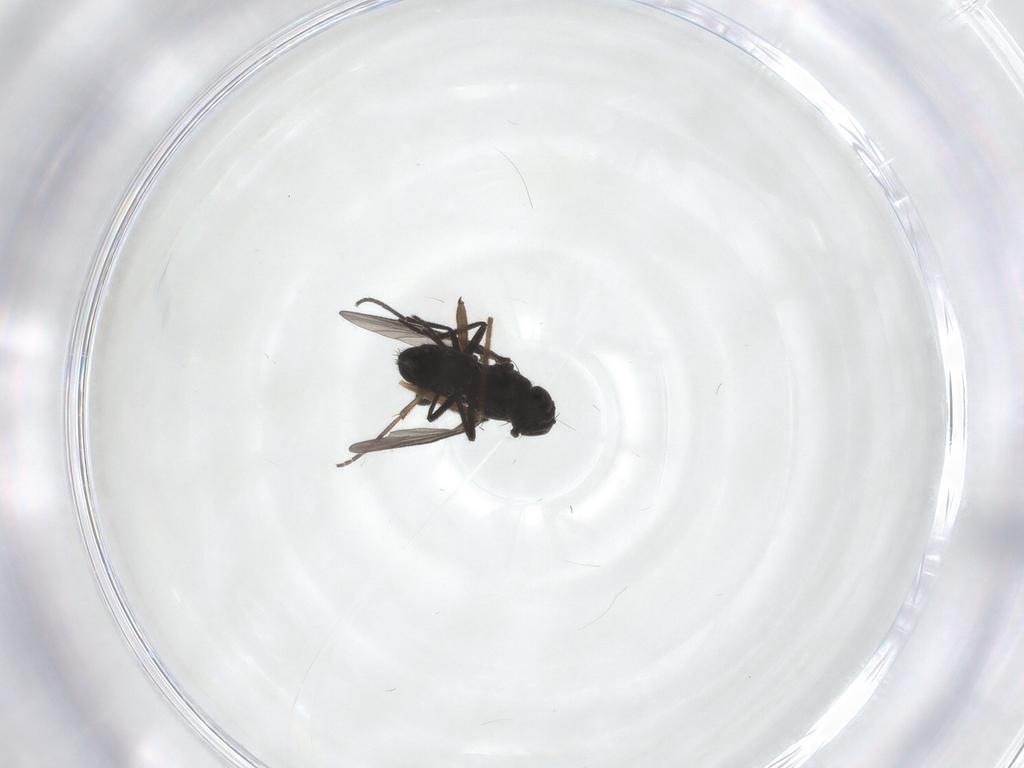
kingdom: Animalia
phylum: Arthropoda
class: Insecta
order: Diptera
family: Chironomidae
